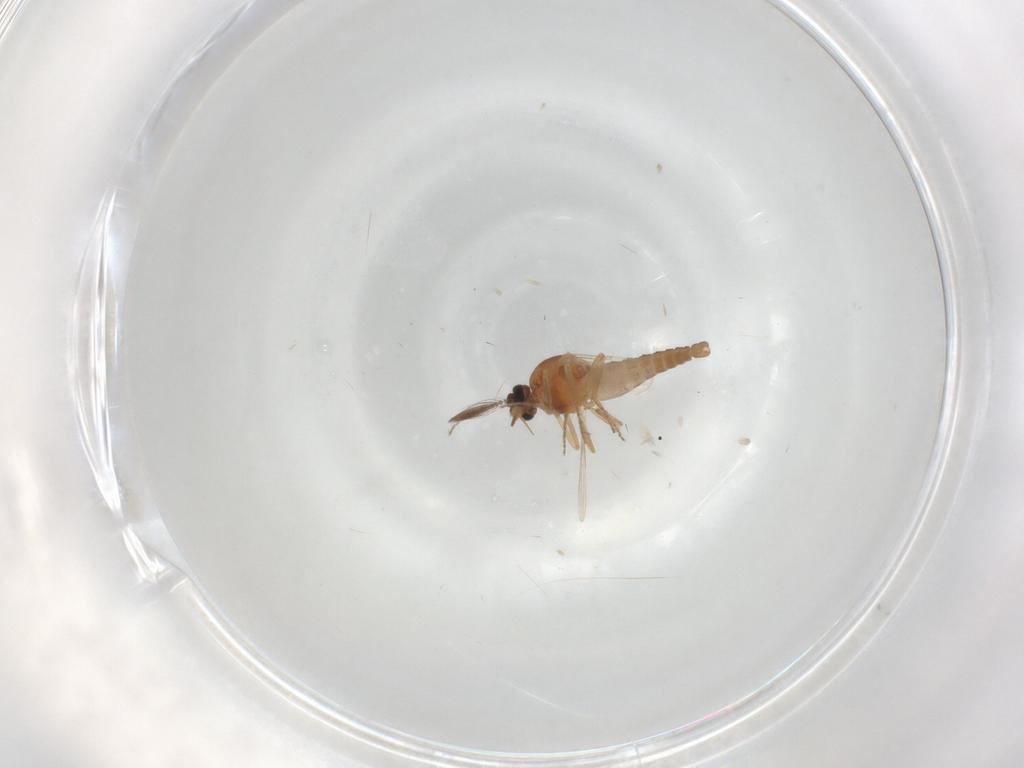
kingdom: Animalia
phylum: Arthropoda
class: Insecta
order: Diptera
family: Ceratopogonidae
